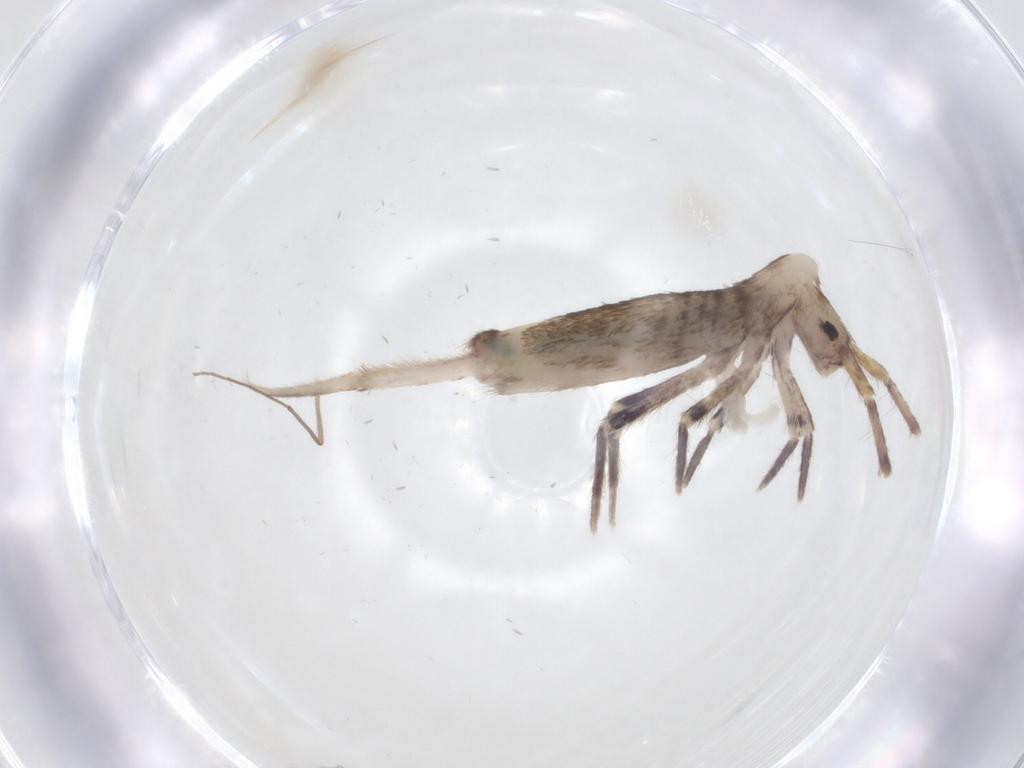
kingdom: Animalia
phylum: Arthropoda
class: Collembola
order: Entomobryomorpha
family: Entomobryidae
